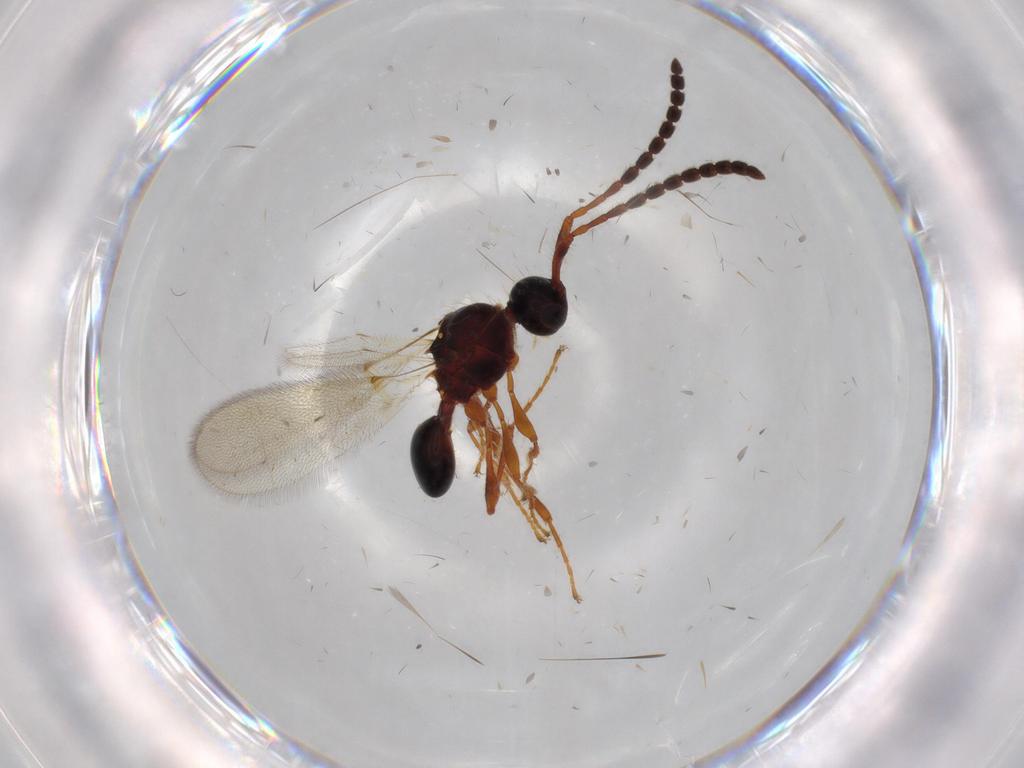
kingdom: Animalia
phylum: Arthropoda
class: Insecta
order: Hymenoptera
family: Diapriidae
